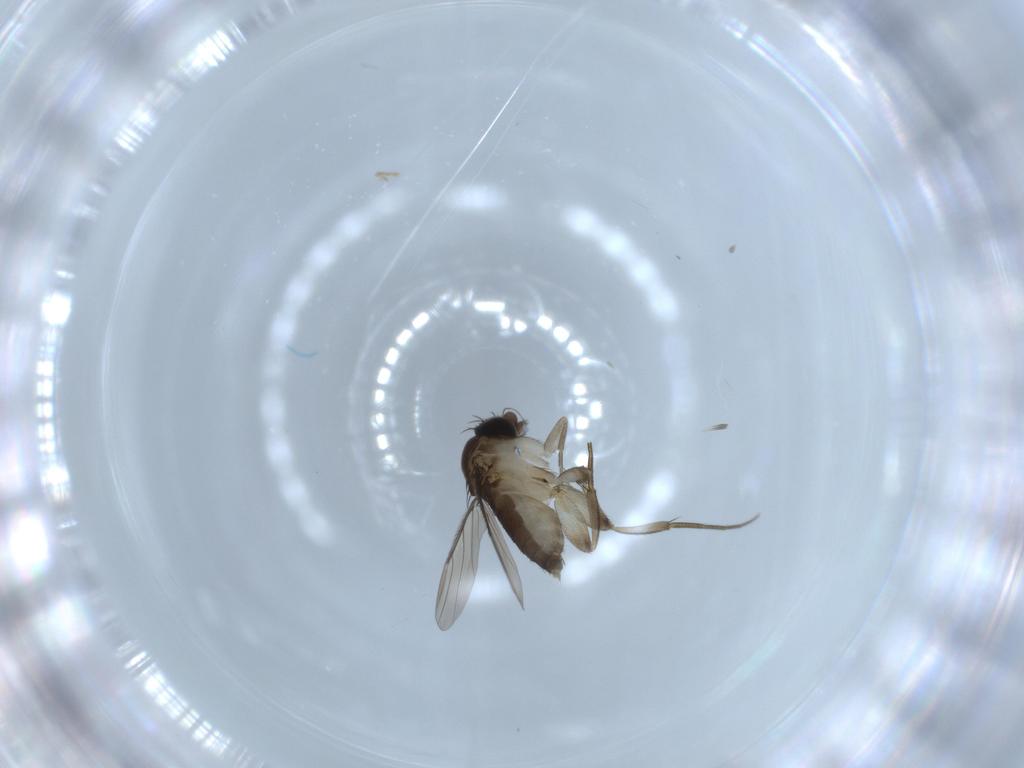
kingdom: Animalia
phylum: Arthropoda
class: Insecta
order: Diptera
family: Phoridae
